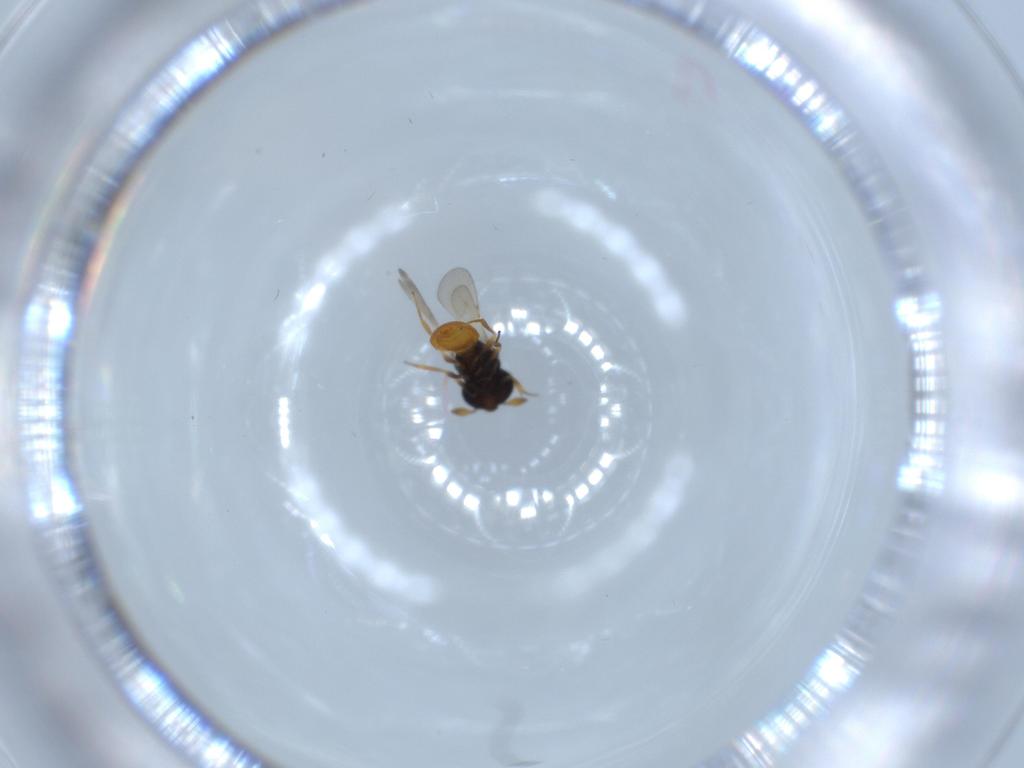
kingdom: Animalia
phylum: Arthropoda
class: Insecta
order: Hymenoptera
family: Scelionidae
